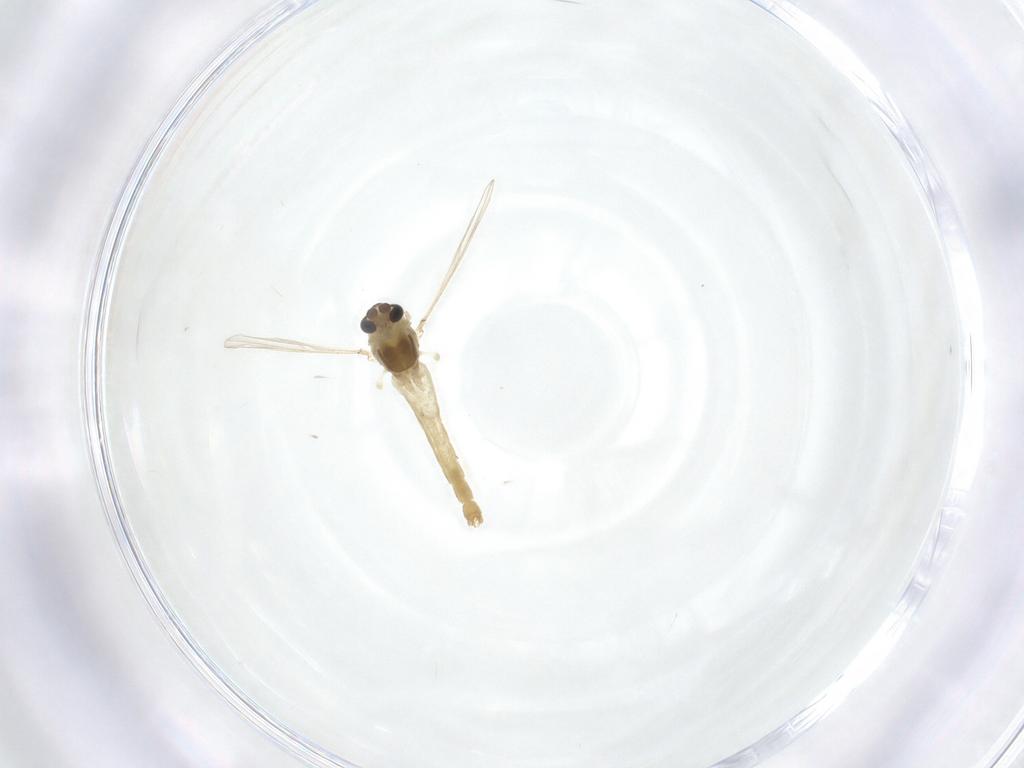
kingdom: Animalia
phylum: Arthropoda
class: Insecta
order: Diptera
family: Chironomidae
